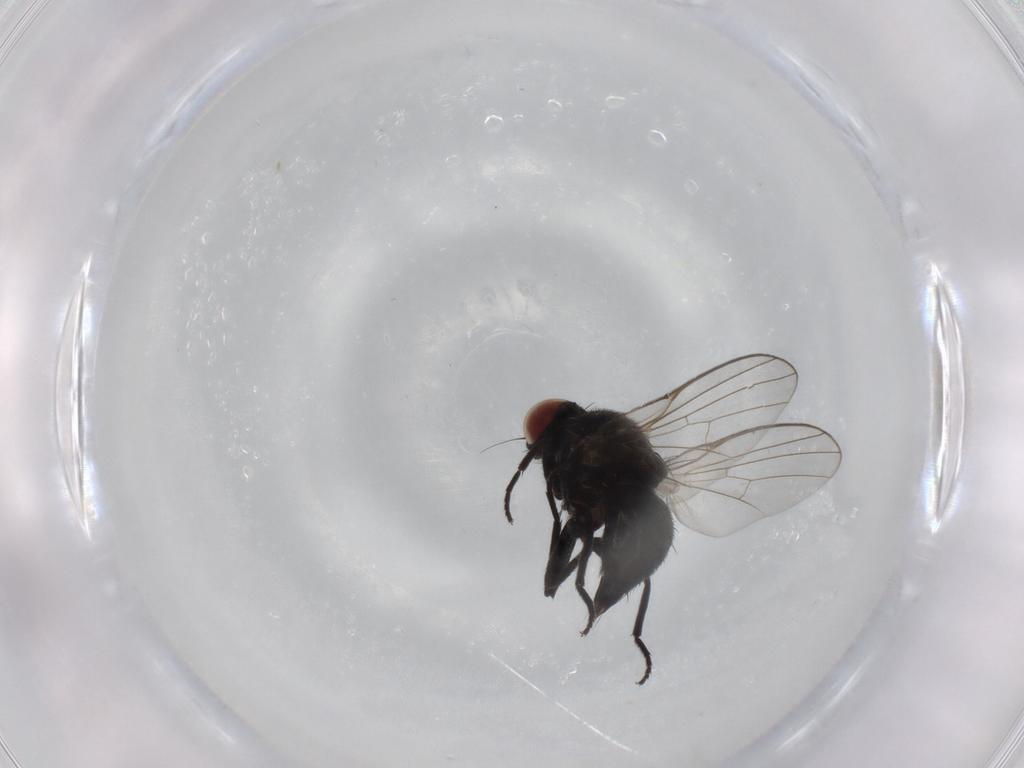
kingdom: Animalia
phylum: Arthropoda
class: Insecta
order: Diptera
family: Agromyzidae
